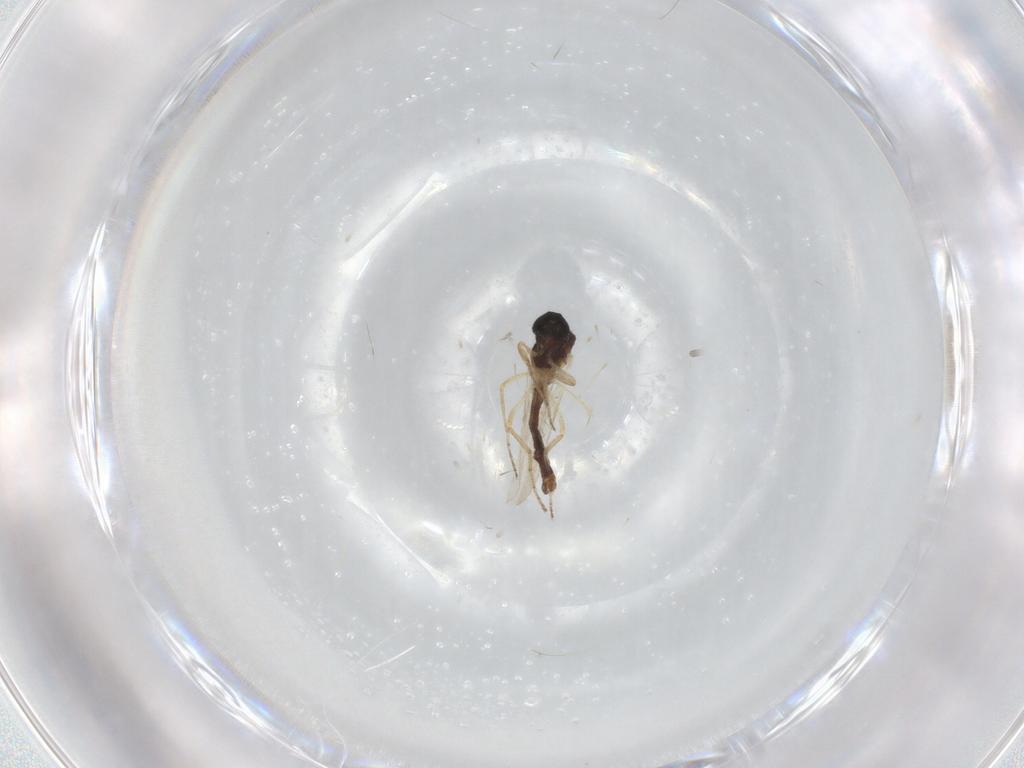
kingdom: Animalia
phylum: Arthropoda
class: Insecta
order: Diptera
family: Ceratopogonidae
